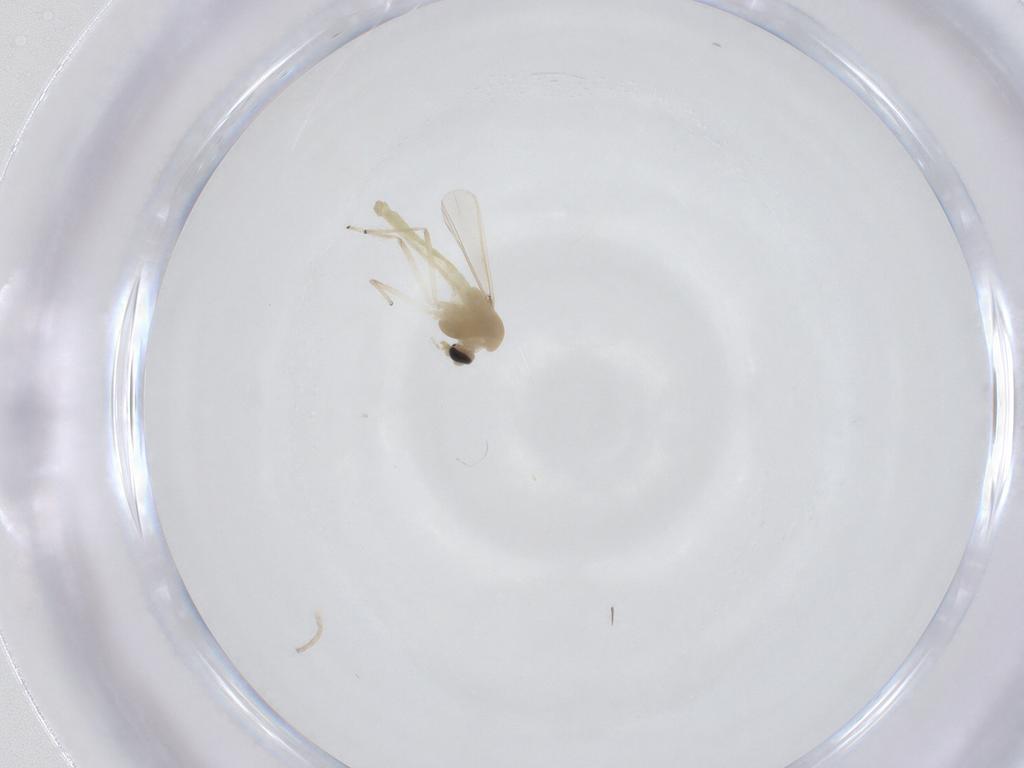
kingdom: Animalia
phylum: Arthropoda
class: Insecta
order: Diptera
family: Chironomidae
